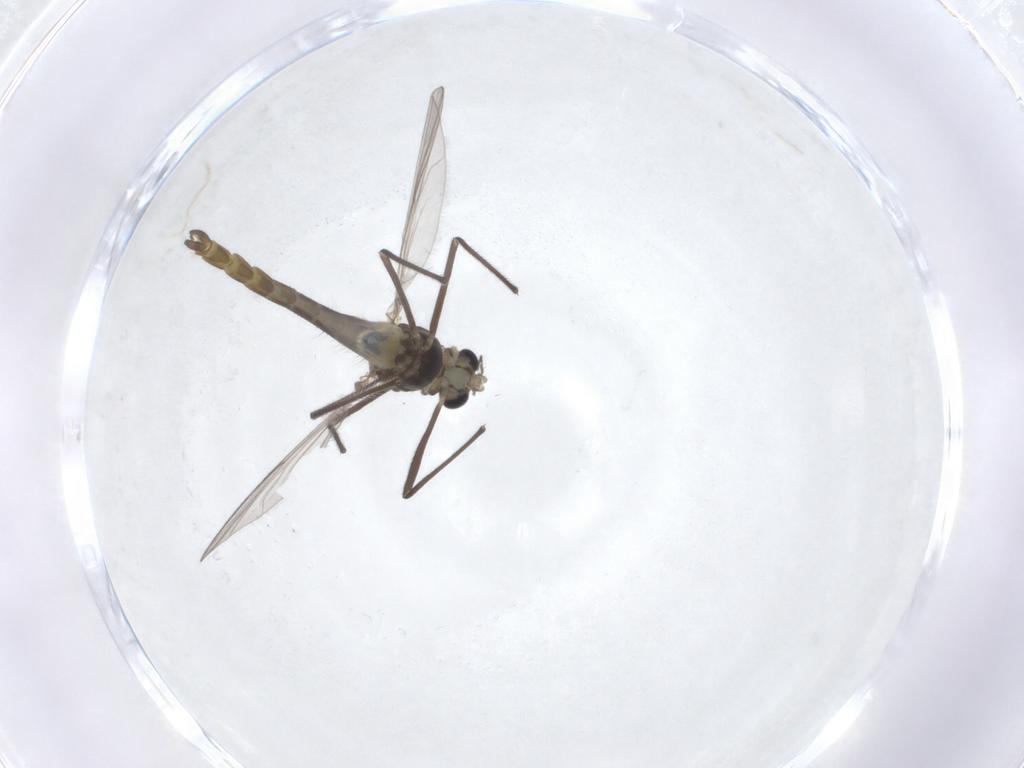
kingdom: Animalia
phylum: Arthropoda
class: Insecta
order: Diptera
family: Chironomidae
